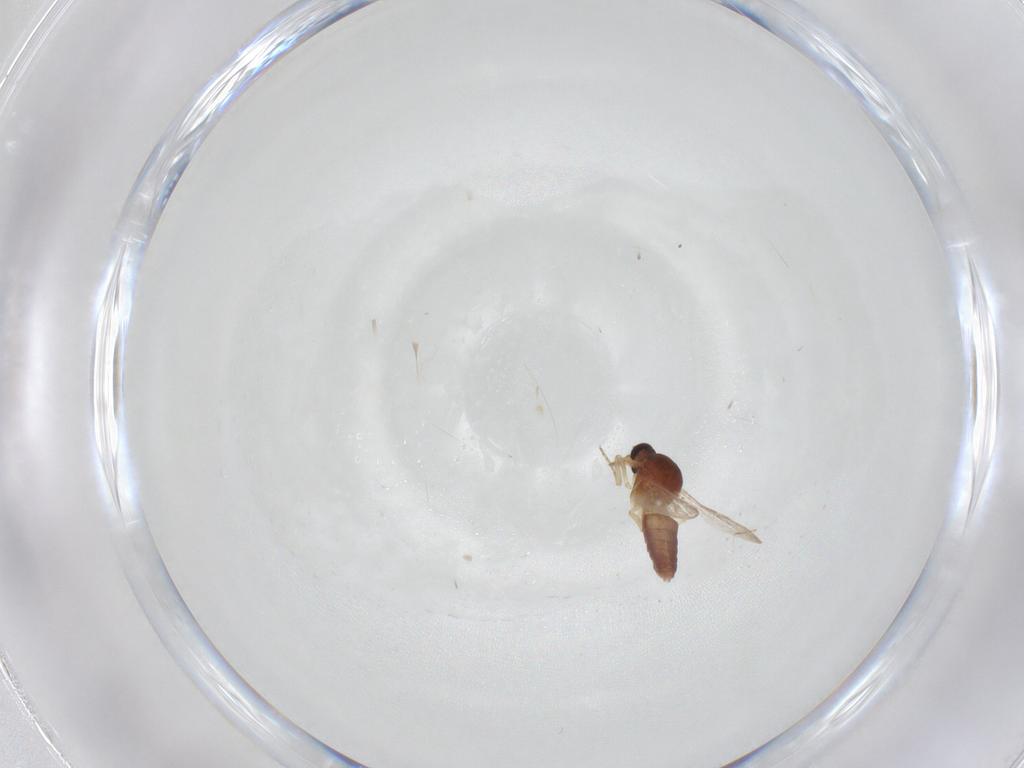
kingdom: Animalia
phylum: Arthropoda
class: Insecta
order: Diptera
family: Ceratopogonidae
